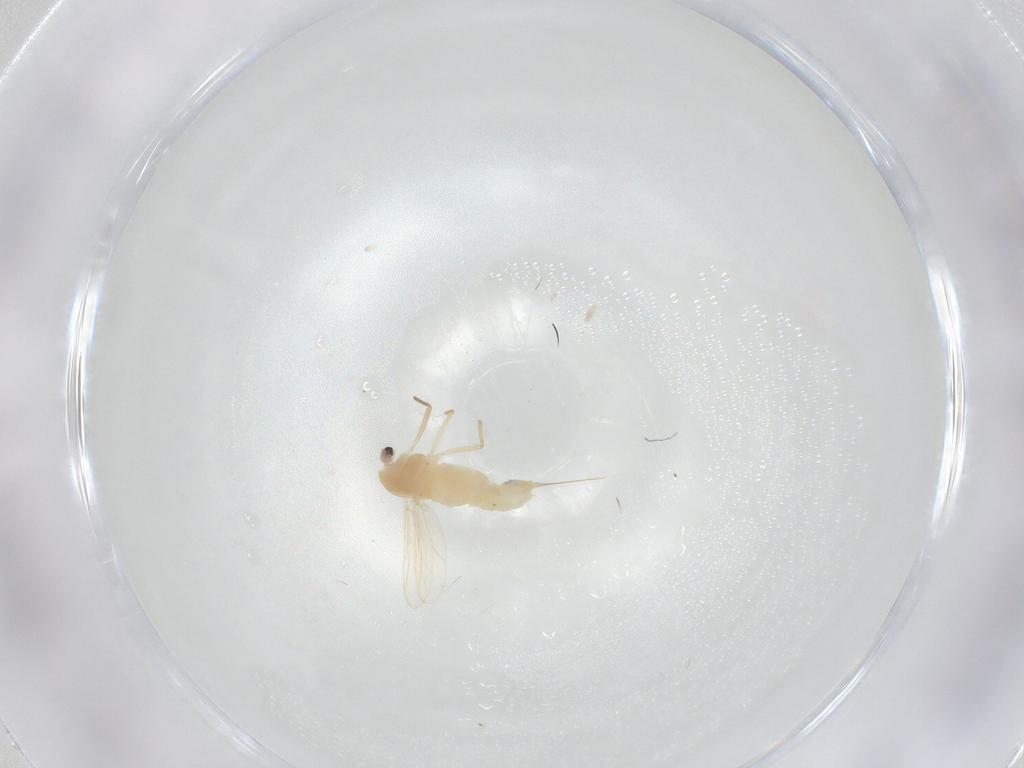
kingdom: Animalia
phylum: Arthropoda
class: Insecta
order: Diptera
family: Chironomidae
